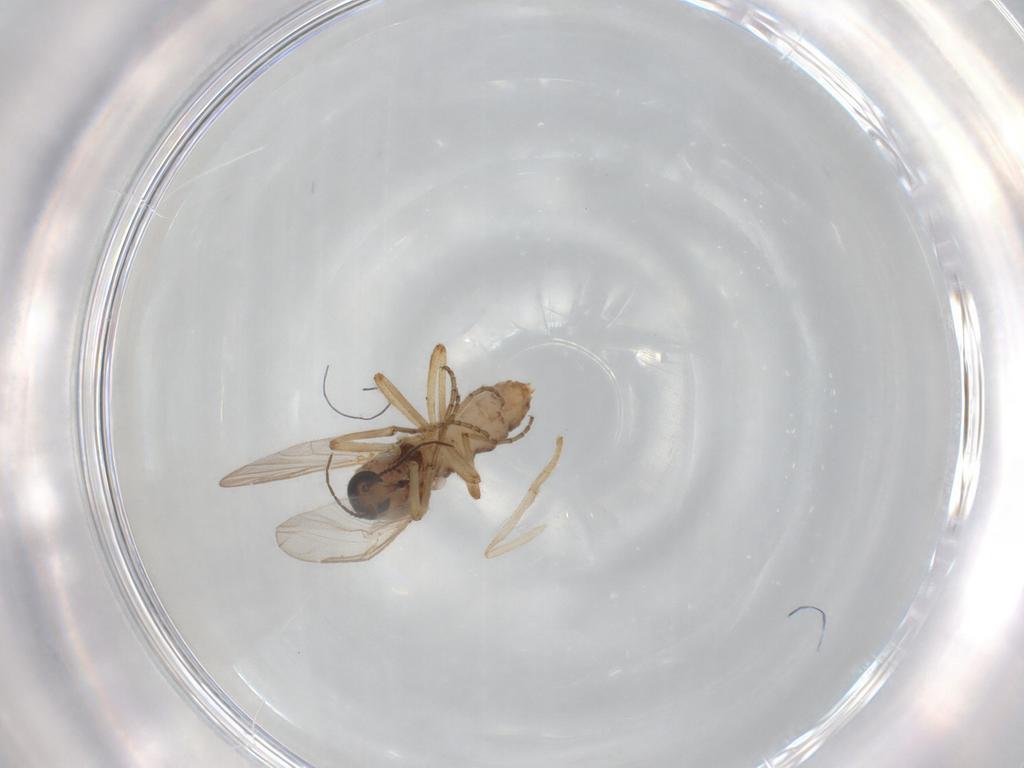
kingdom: Animalia
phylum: Arthropoda
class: Insecta
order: Diptera
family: Ceratopogonidae
